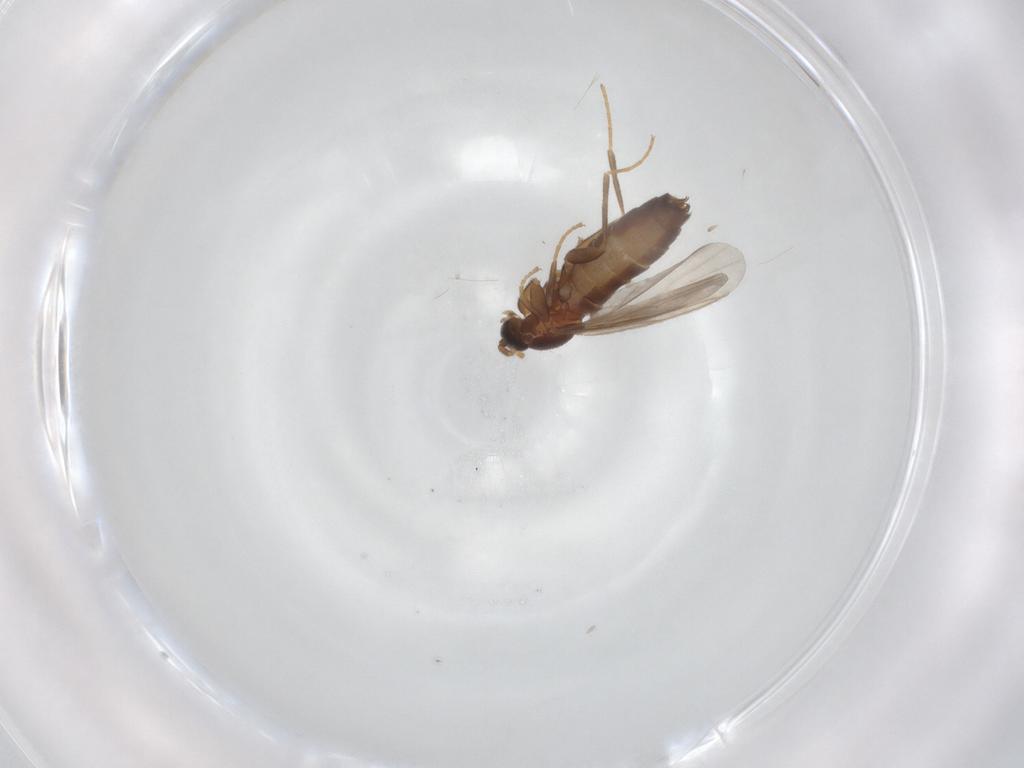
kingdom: Animalia
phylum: Arthropoda
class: Insecta
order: Diptera
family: Scatopsidae
